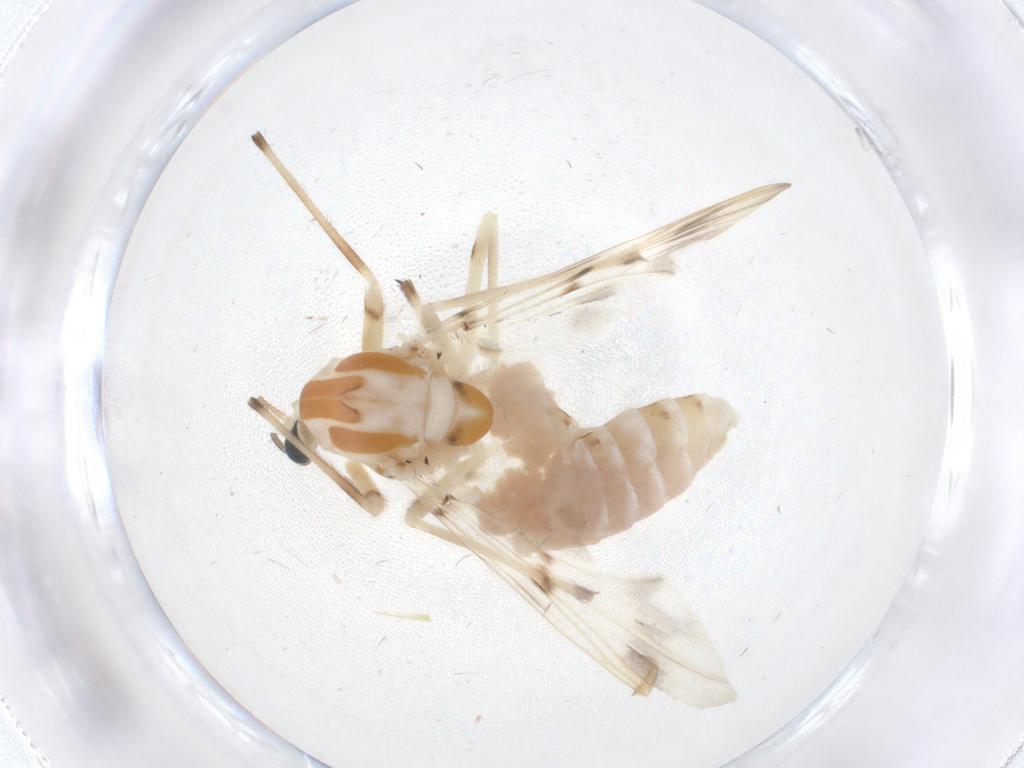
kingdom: Animalia
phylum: Arthropoda
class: Insecta
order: Diptera
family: Chironomidae
